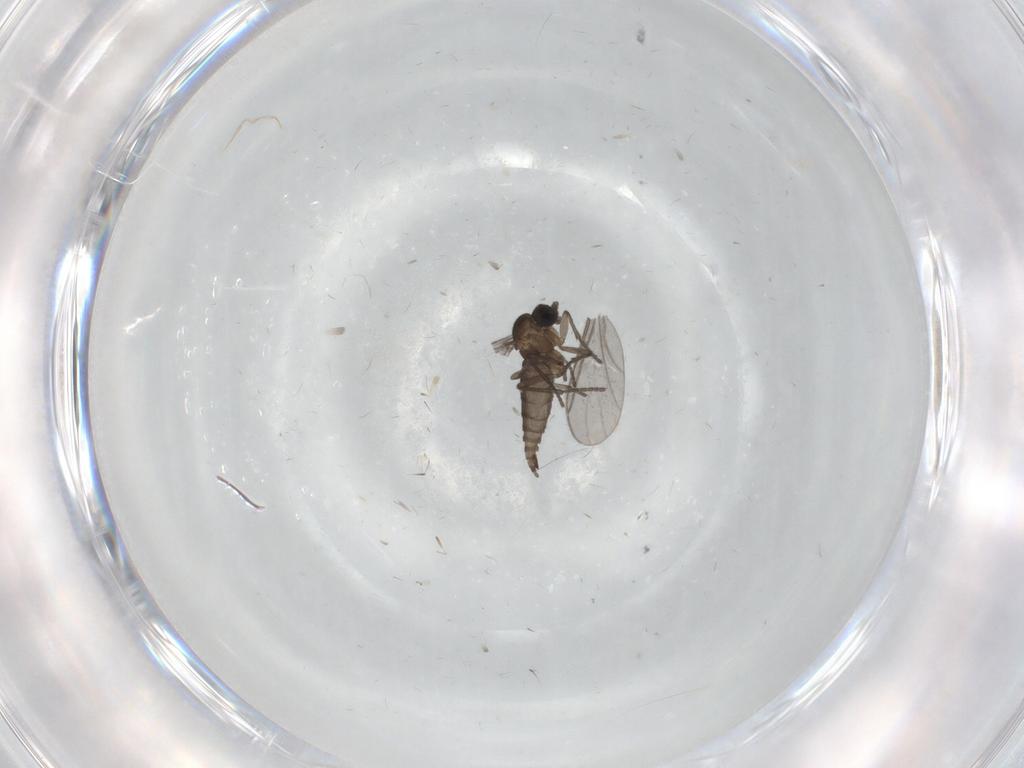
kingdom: Animalia
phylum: Arthropoda
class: Insecta
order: Diptera
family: Chironomidae
